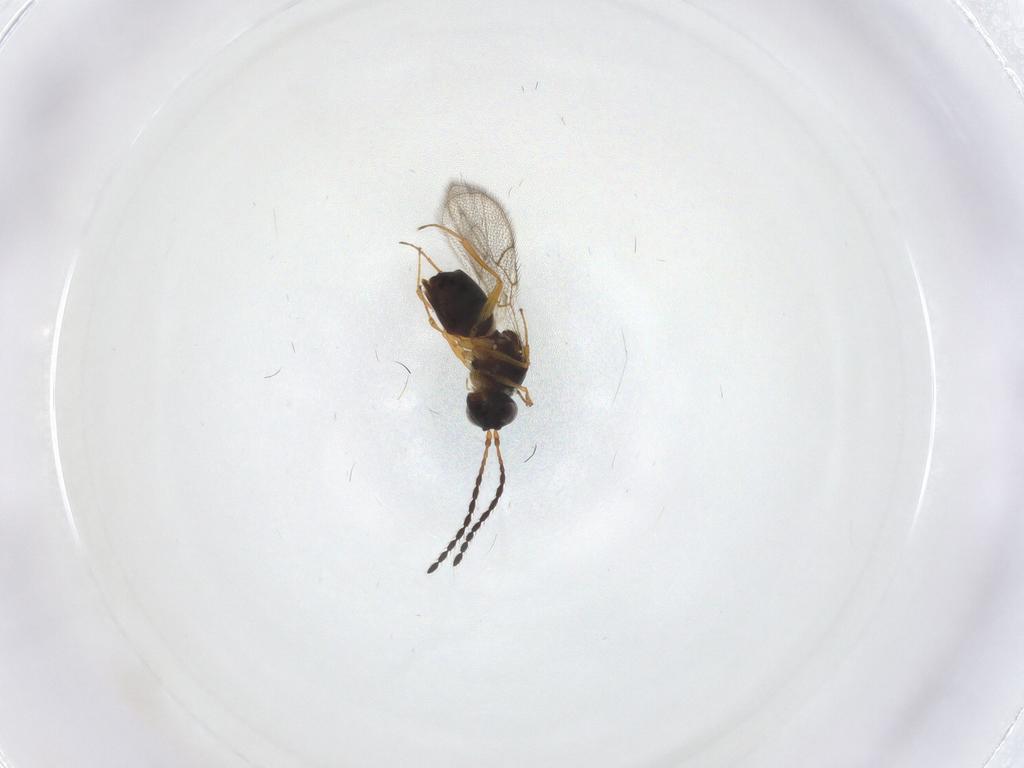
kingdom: Animalia
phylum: Arthropoda
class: Insecta
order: Hymenoptera
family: Figitidae
